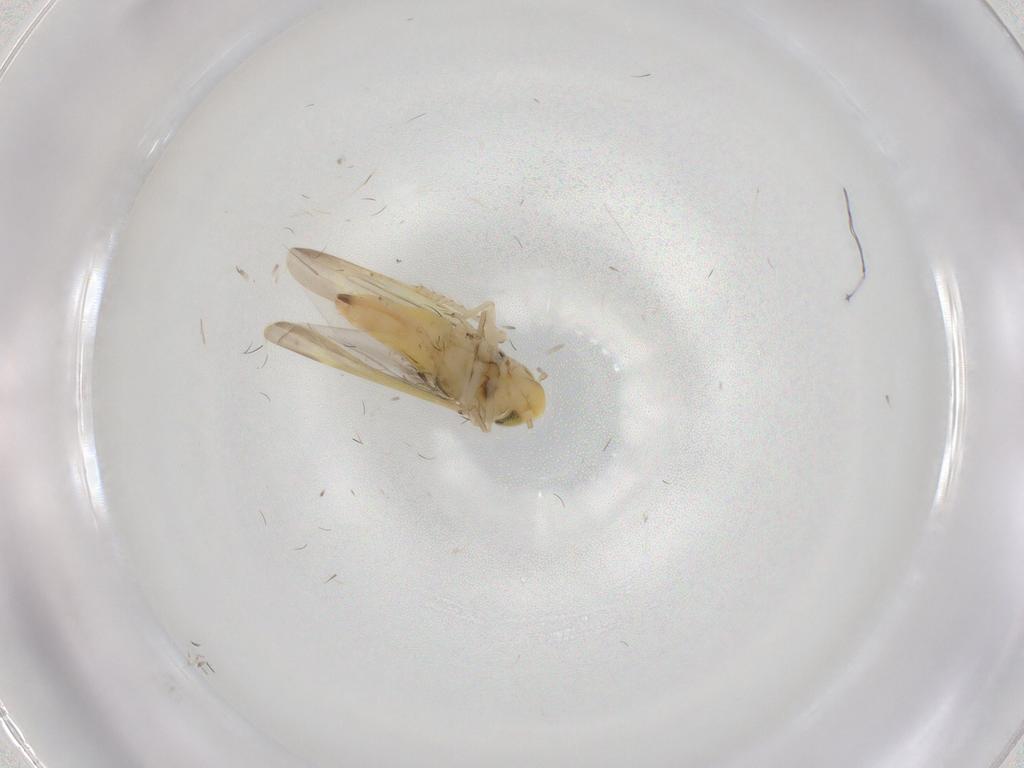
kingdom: Animalia
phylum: Arthropoda
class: Insecta
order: Hemiptera
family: Cicadellidae
